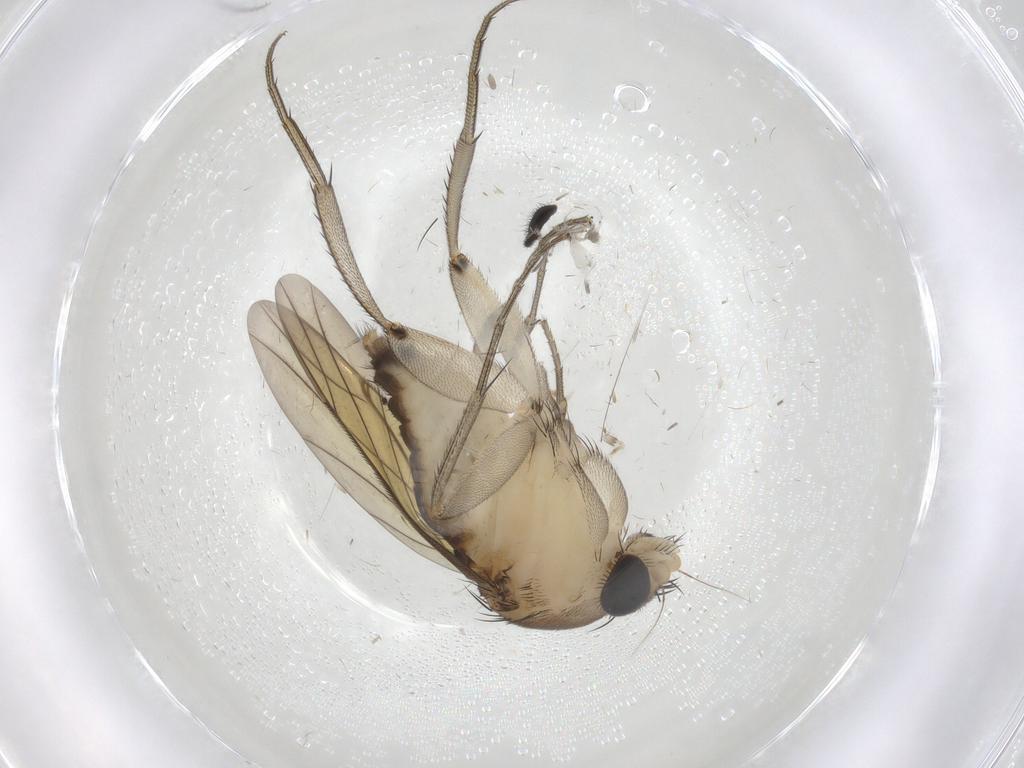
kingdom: Animalia
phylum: Arthropoda
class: Insecta
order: Diptera
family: Phoridae
